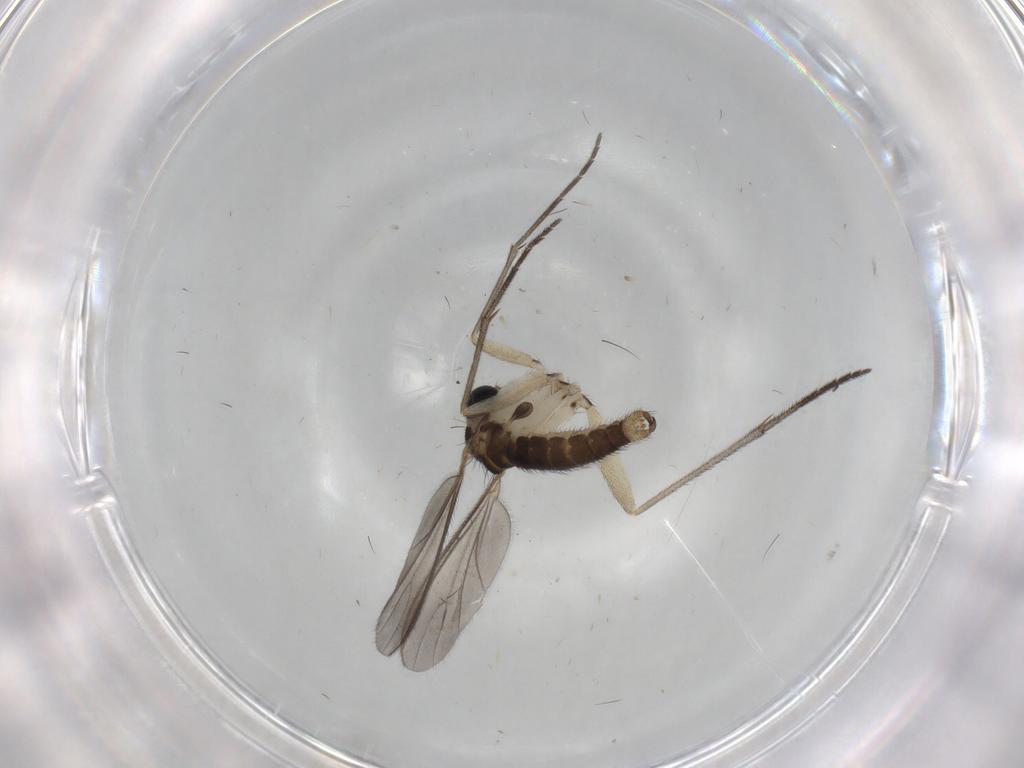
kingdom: Animalia
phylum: Arthropoda
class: Insecta
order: Diptera
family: Sciaridae
